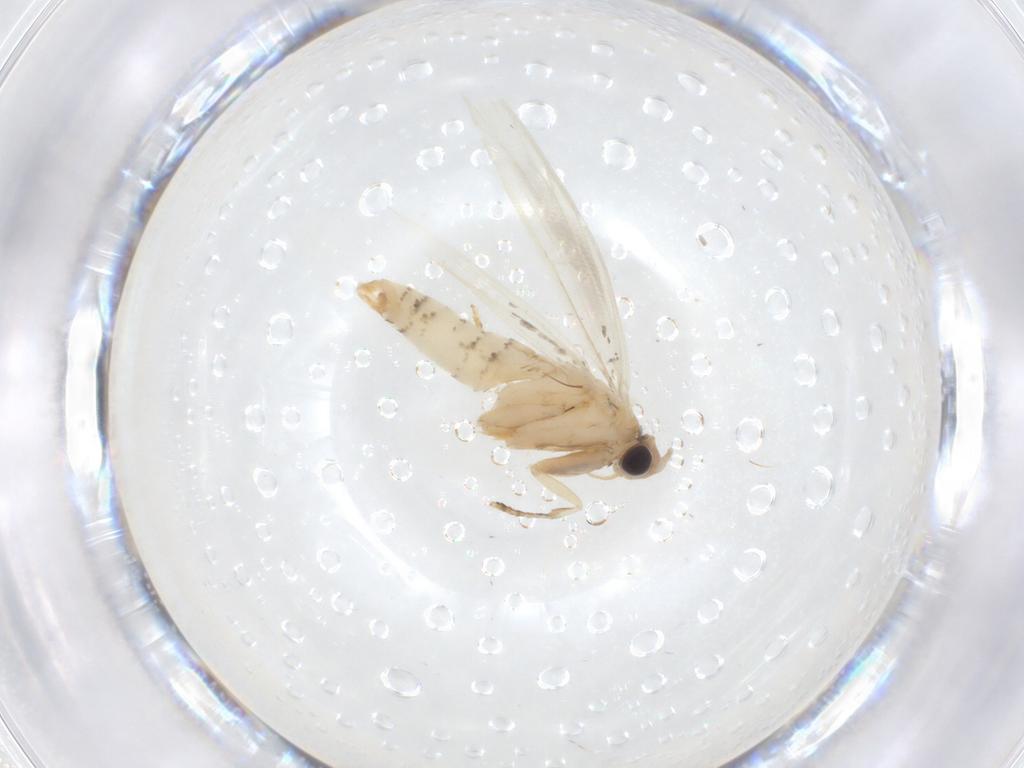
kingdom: Animalia
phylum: Arthropoda
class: Insecta
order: Lepidoptera
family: Tineidae
